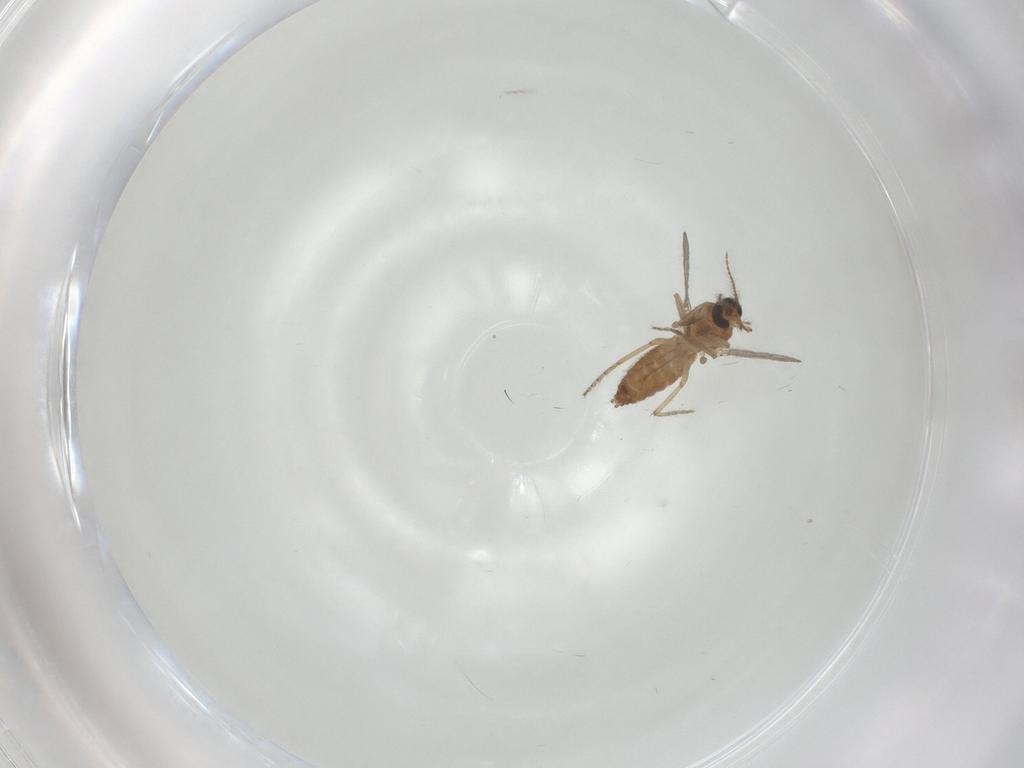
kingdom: Animalia
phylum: Arthropoda
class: Insecta
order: Diptera
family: Ceratopogonidae
